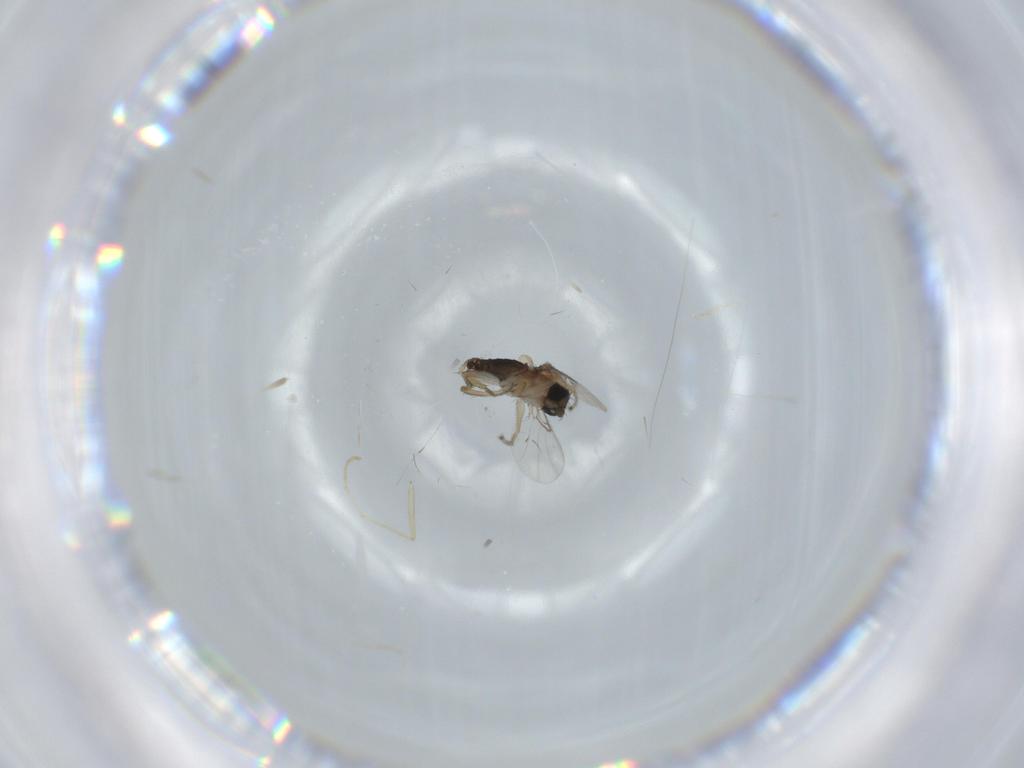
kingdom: Animalia
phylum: Arthropoda
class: Insecta
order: Diptera
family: Phoridae
